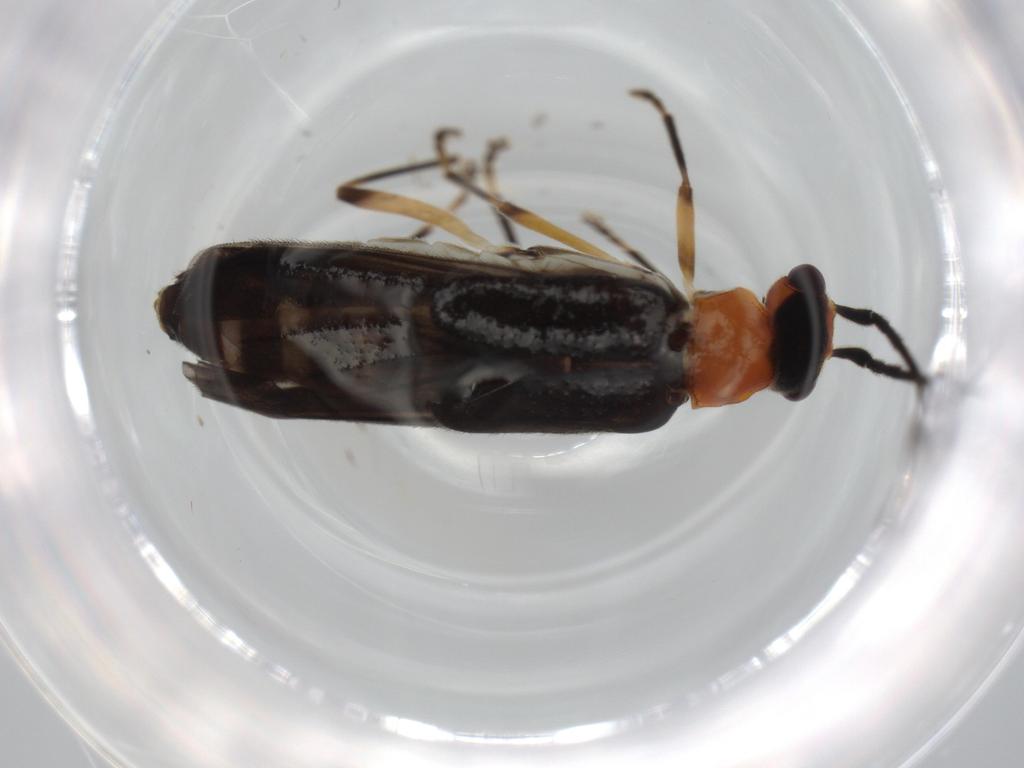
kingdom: Animalia
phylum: Arthropoda
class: Insecta
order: Coleoptera
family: Cantharidae
